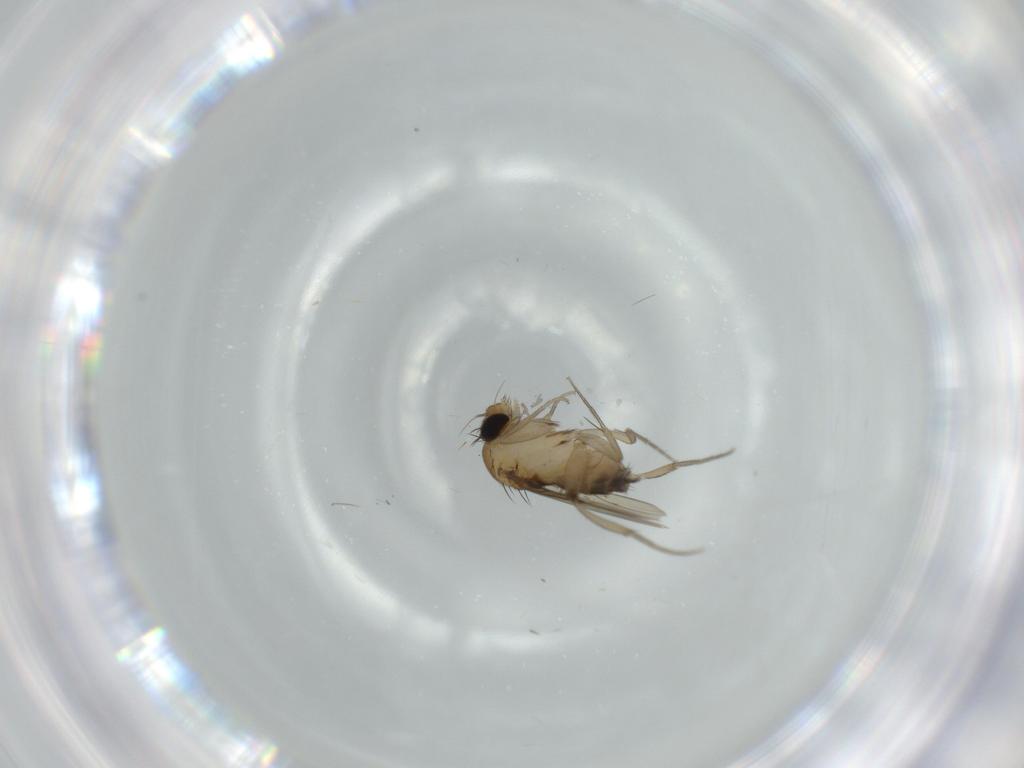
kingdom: Animalia
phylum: Arthropoda
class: Insecta
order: Diptera
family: Phoridae
